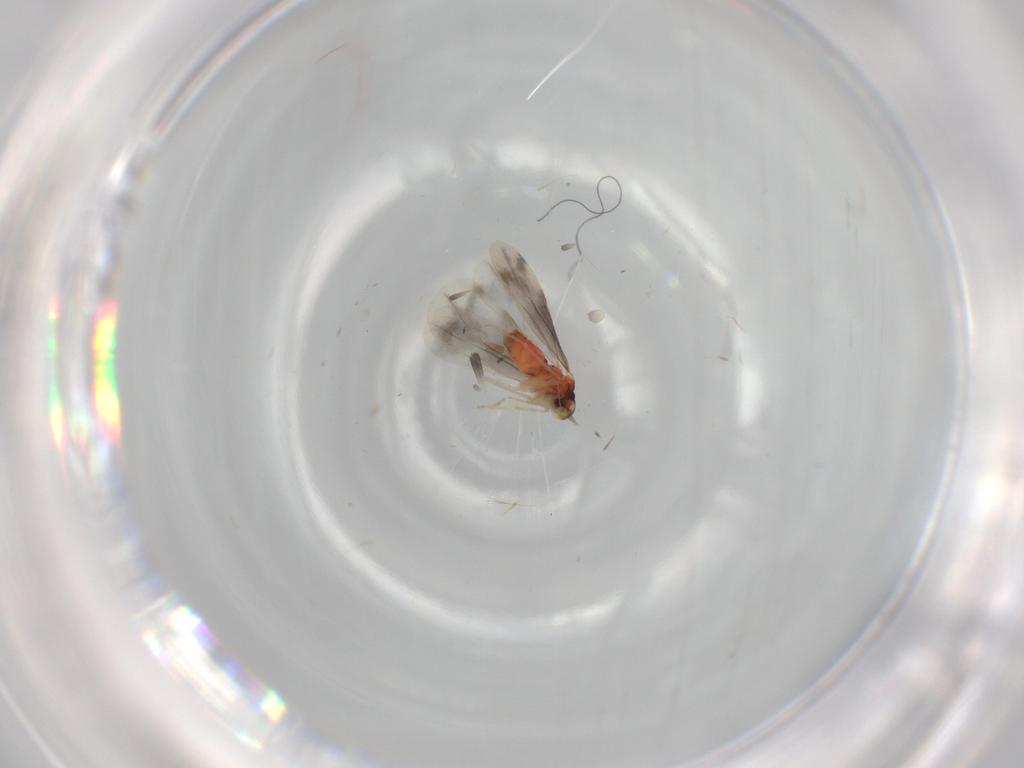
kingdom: Animalia
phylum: Arthropoda
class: Insecta
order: Hemiptera
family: Aleyrodidae
